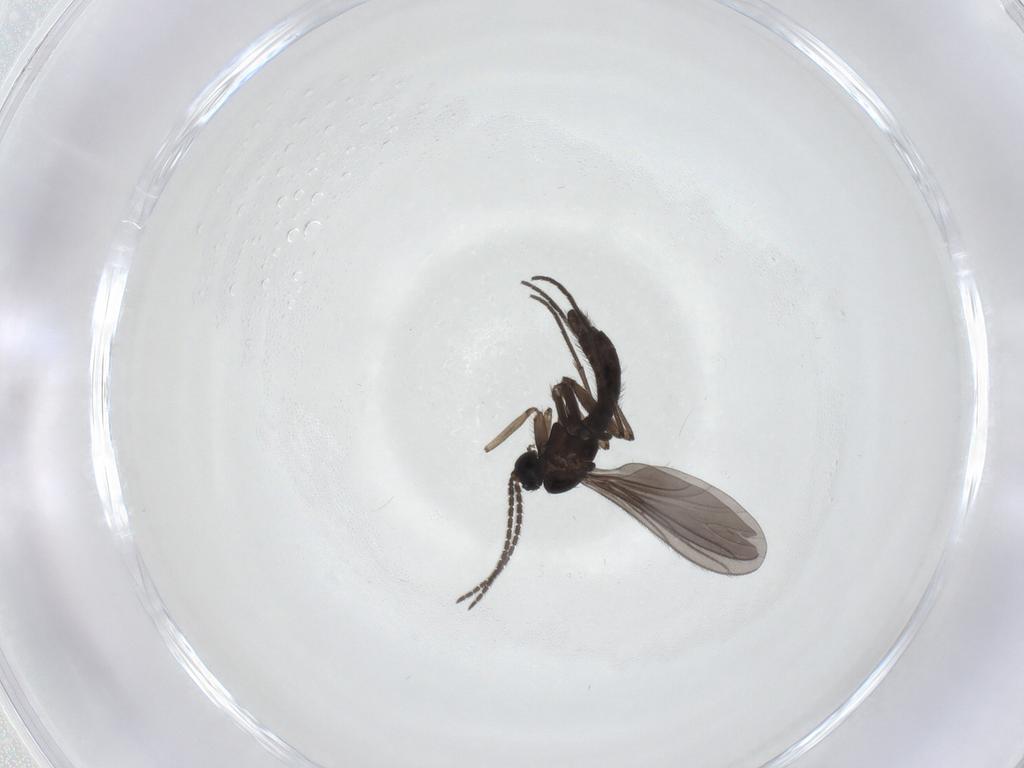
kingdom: Animalia
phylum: Arthropoda
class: Insecta
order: Diptera
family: Sciaridae
